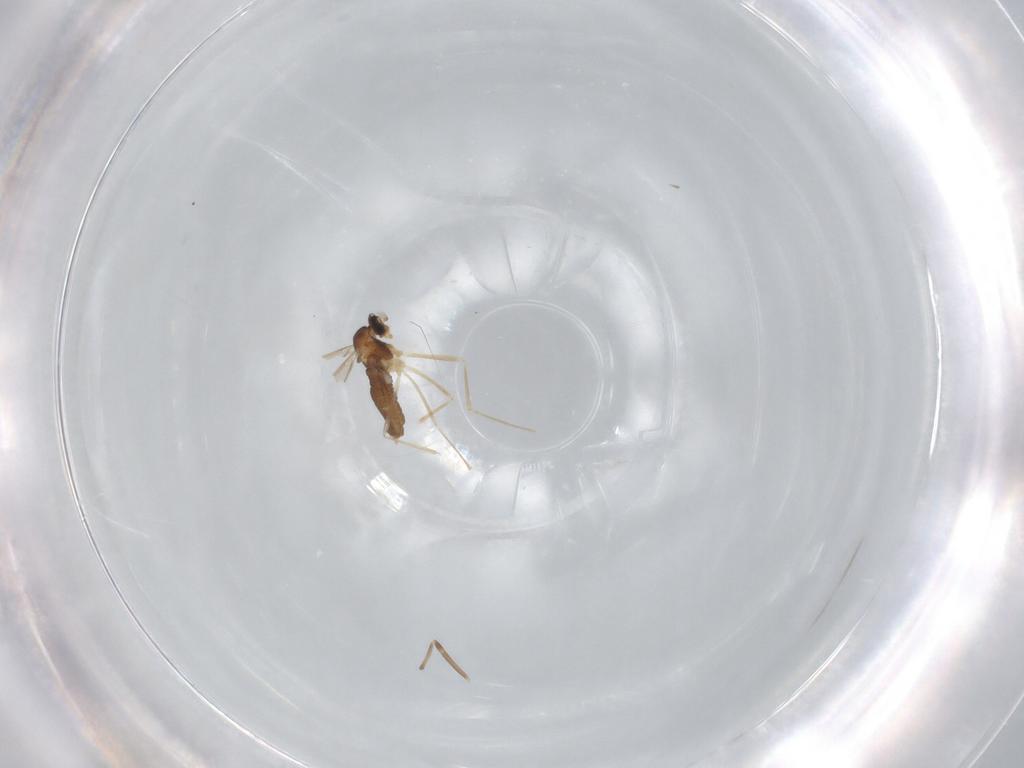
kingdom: Animalia
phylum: Arthropoda
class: Insecta
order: Diptera
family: Cecidomyiidae
